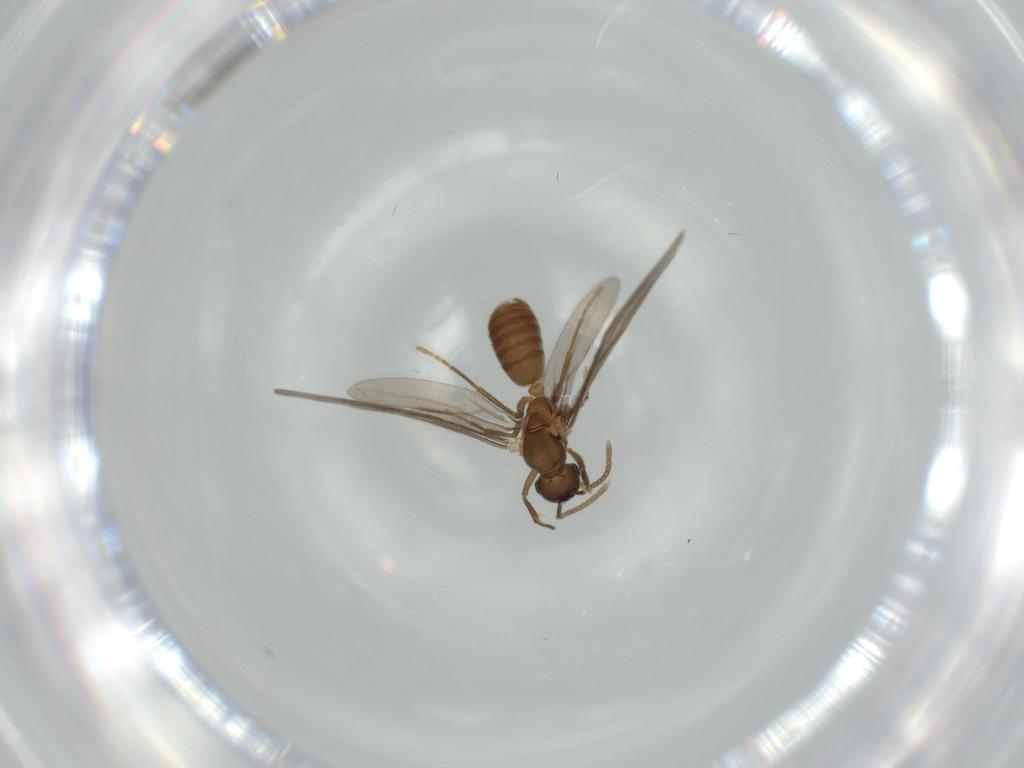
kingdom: Animalia
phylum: Arthropoda
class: Insecta
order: Hymenoptera
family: Formicidae
